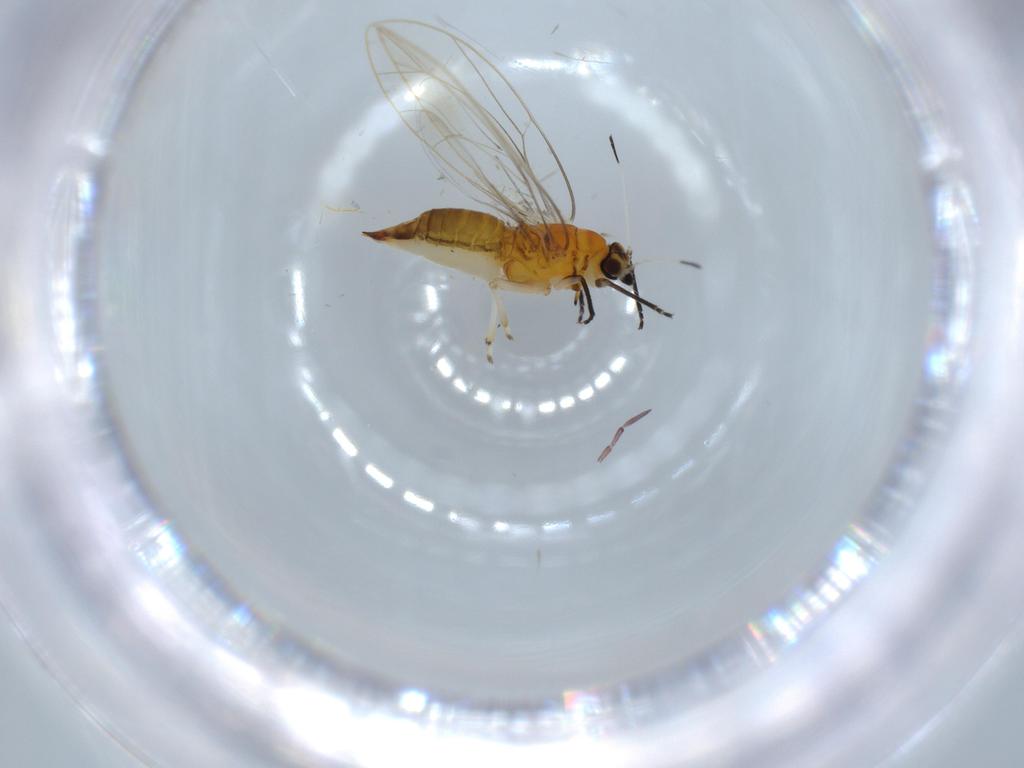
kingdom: Animalia
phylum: Arthropoda
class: Insecta
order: Hemiptera
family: Triozidae
